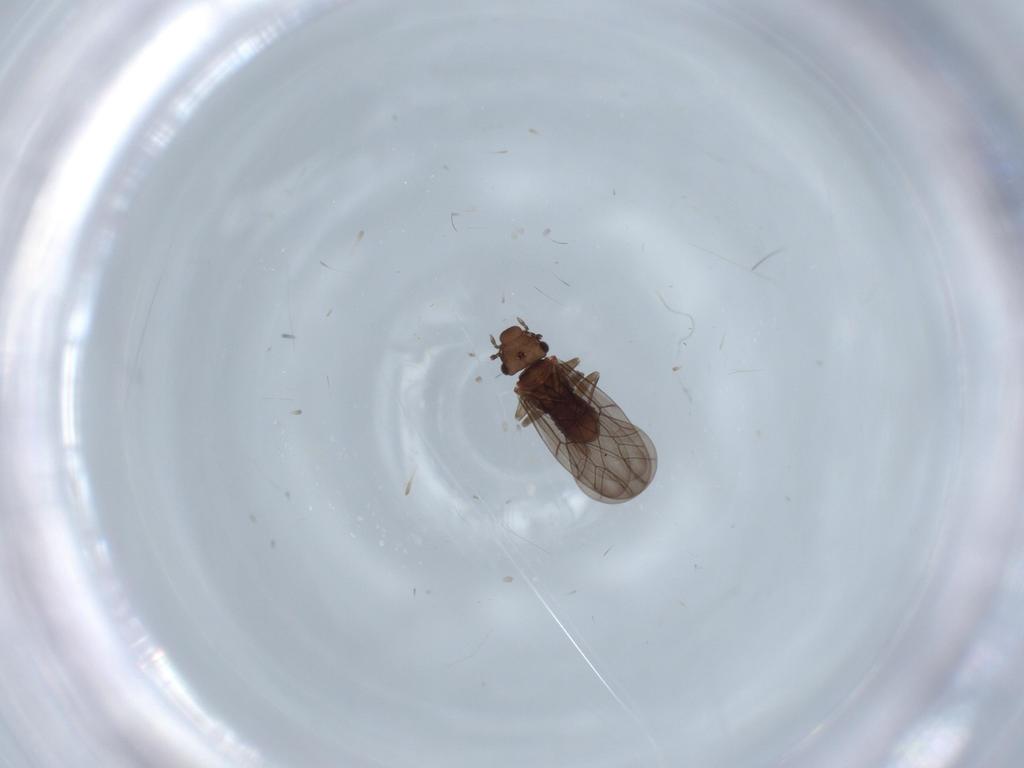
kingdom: Animalia
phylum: Arthropoda
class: Insecta
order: Psocodea
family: Lepidopsocidae
